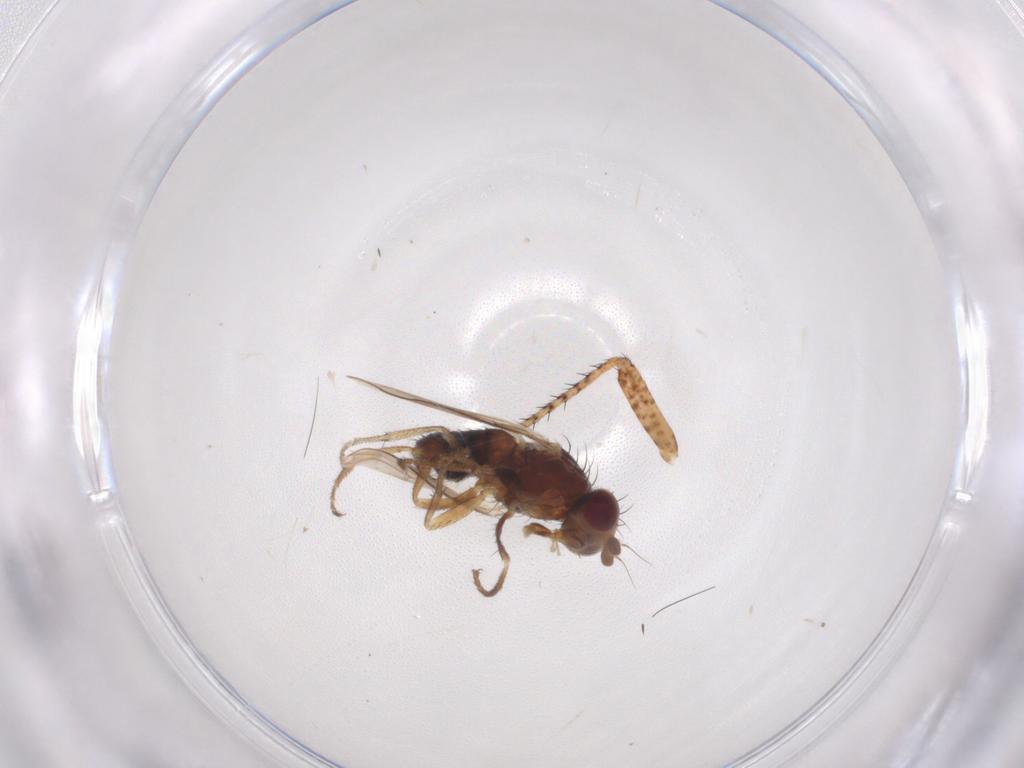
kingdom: Animalia
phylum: Arthropoda
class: Insecta
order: Diptera
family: Heleomyzidae
